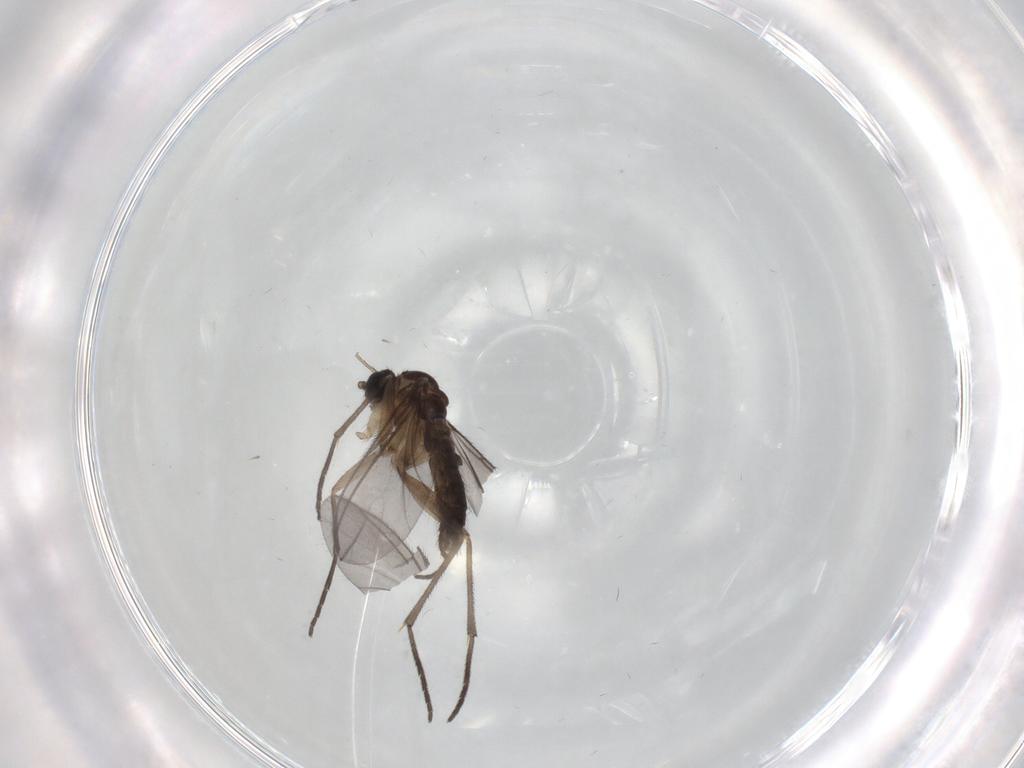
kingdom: Animalia
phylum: Arthropoda
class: Insecta
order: Diptera
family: Sciaridae
